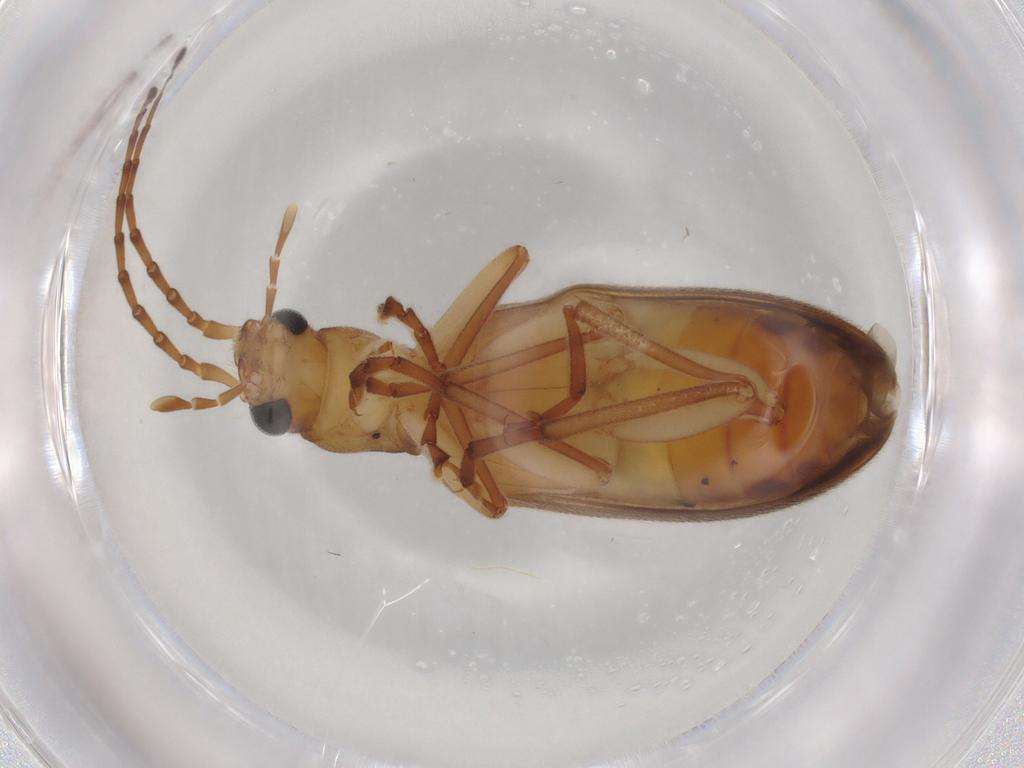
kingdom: Animalia
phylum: Arthropoda
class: Insecta
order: Coleoptera
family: Oedemeridae
